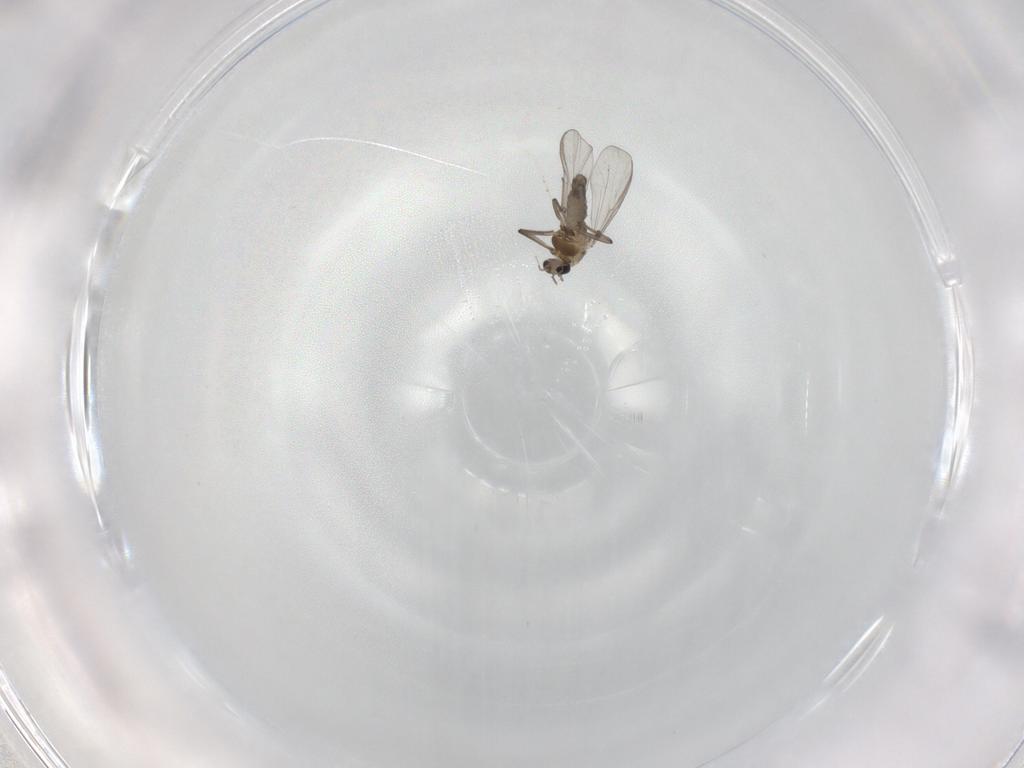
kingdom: Animalia
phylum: Arthropoda
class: Insecta
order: Diptera
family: Chironomidae
